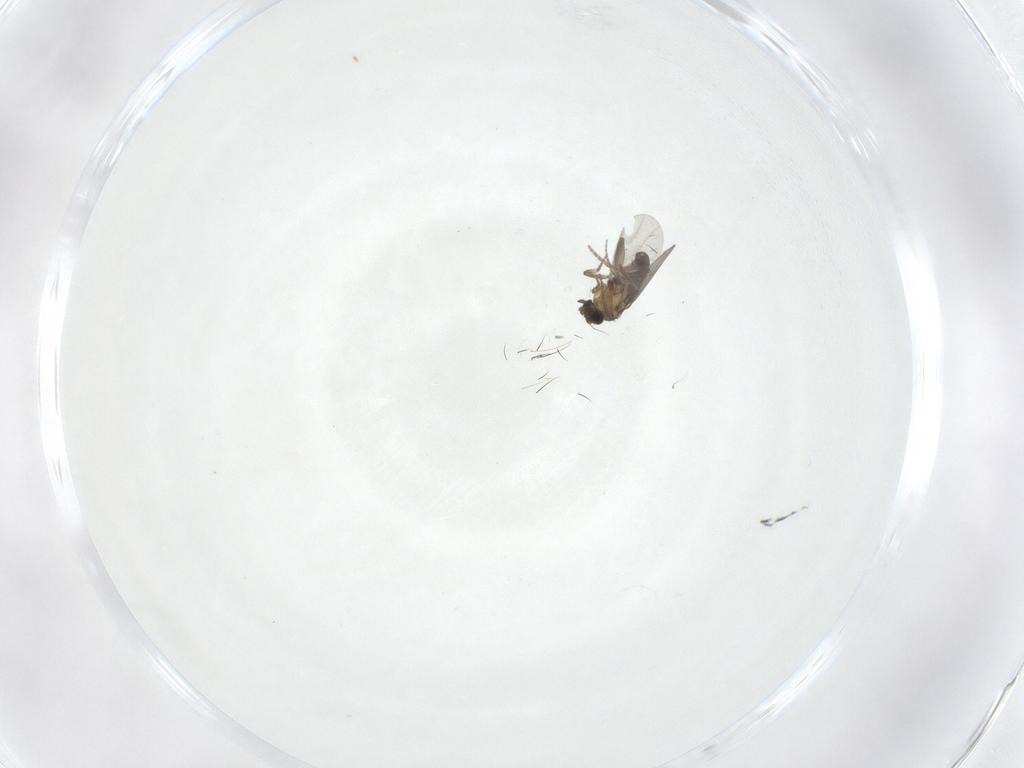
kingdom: Animalia
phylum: Arthropoda
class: Insecta
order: Diptera
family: Dolichopodidae
